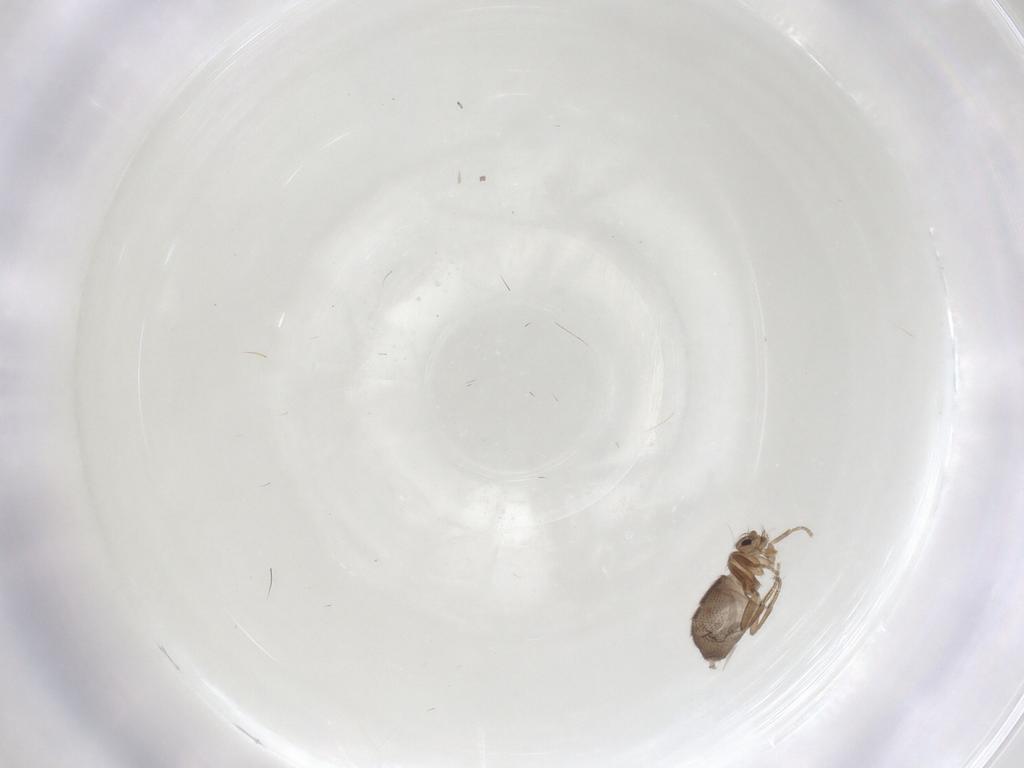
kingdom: Animalia
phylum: Arthropoda
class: Insecta
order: Diptera
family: Phoridae
